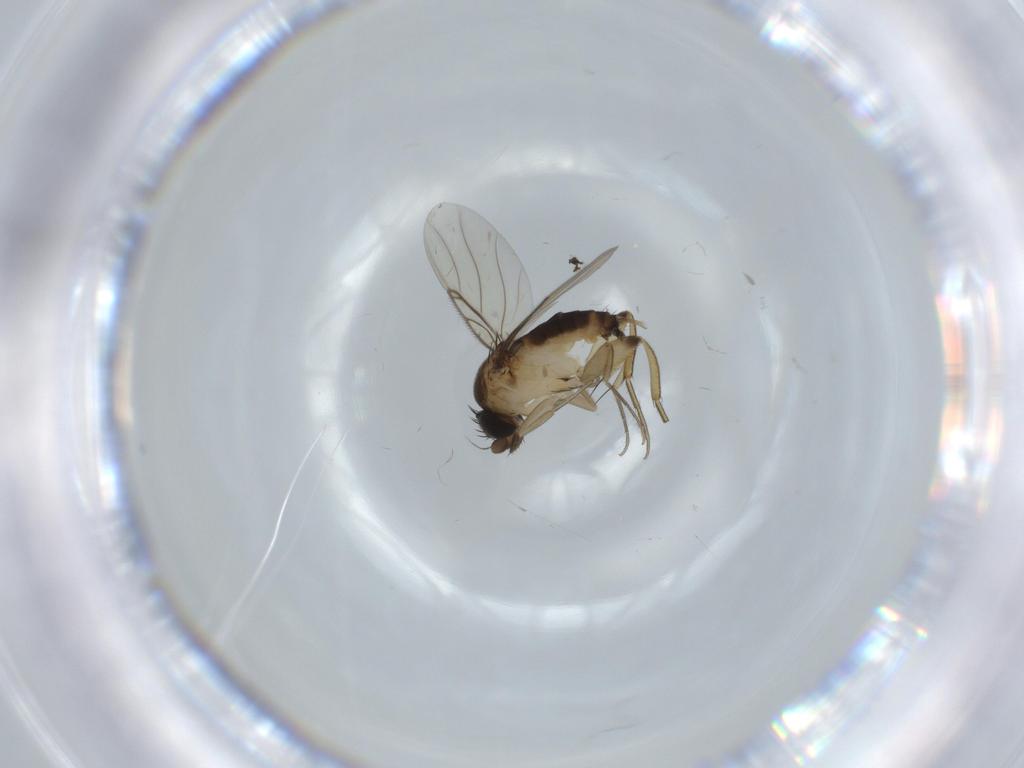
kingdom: Animalia
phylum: Arthropoda
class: Insecta
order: Diptera
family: Phoridae
